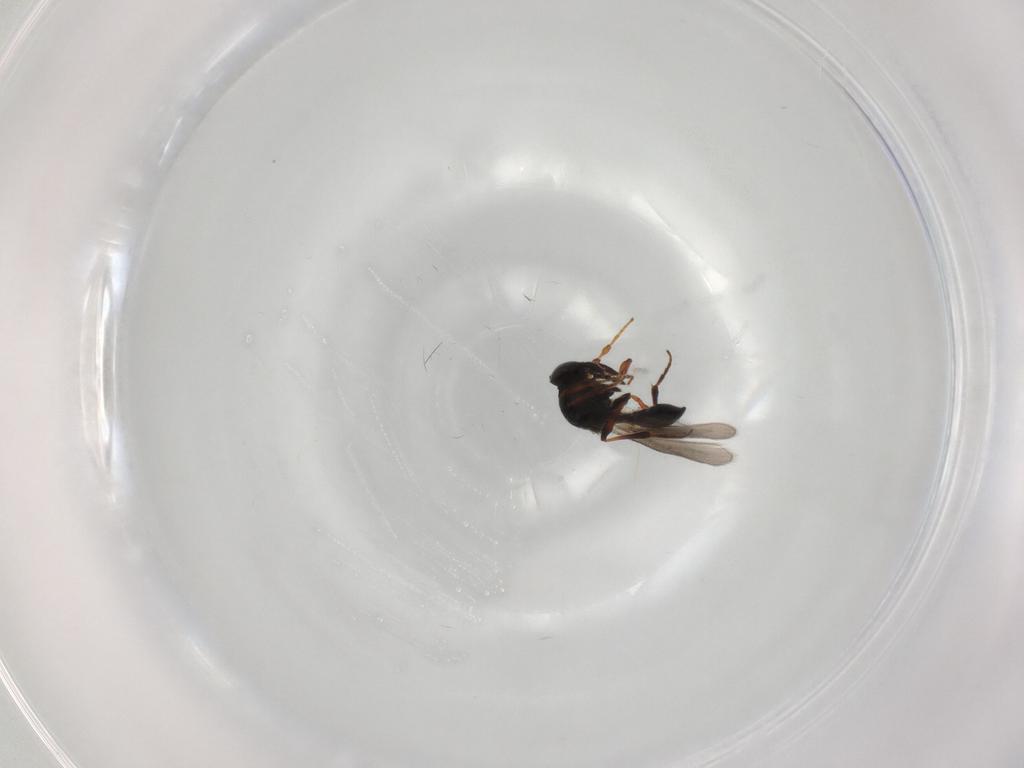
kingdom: Animalia
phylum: Arthropoda
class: Insecta
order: Hymenoptera
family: Platygastridae
